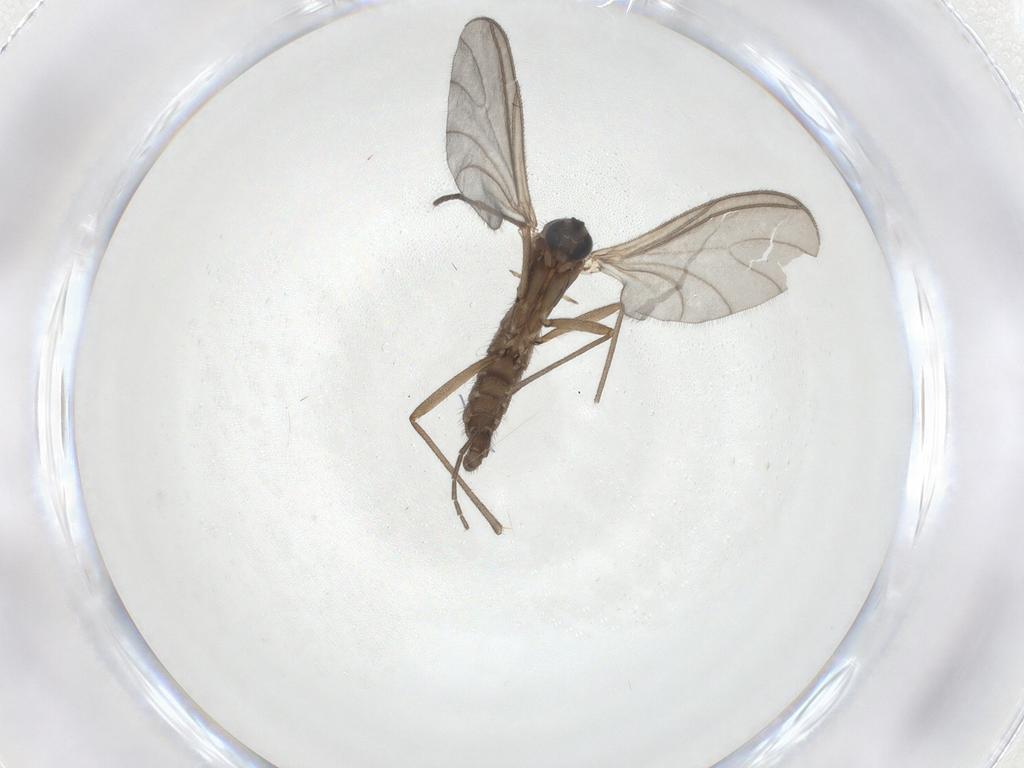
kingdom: Animalia
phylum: Arthropoda
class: Insecta
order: Diptera
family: Sciaridae
